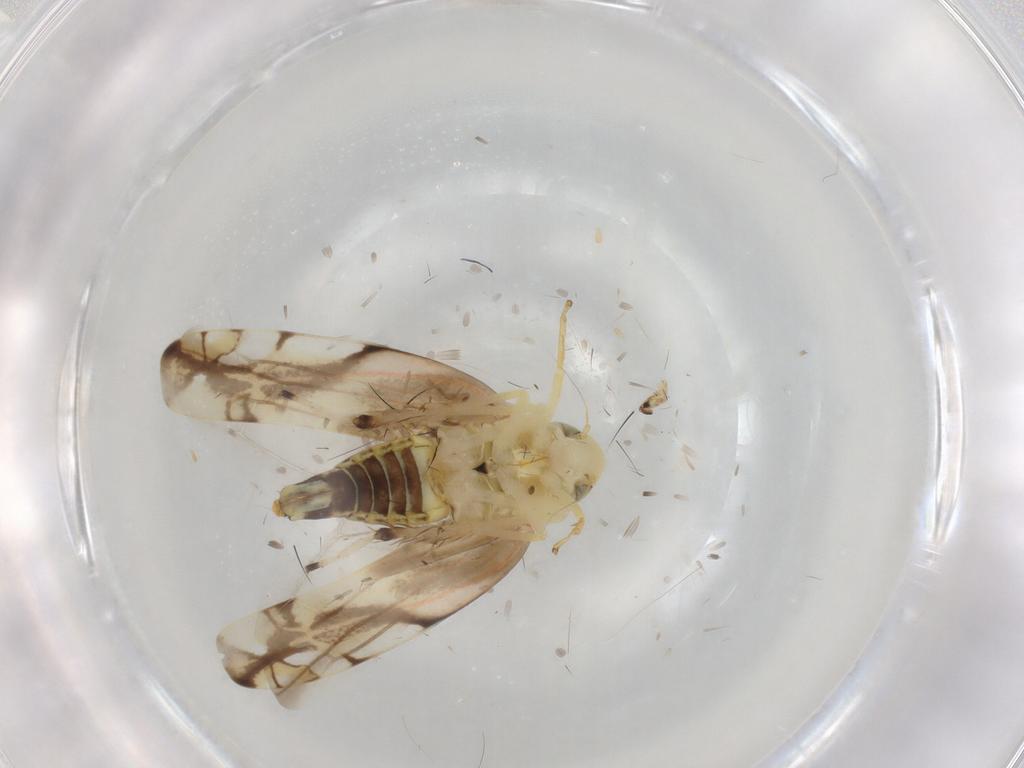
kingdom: Animalia
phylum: Arthropoda
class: Insecta
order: Hemiptera
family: Cicadellidae
